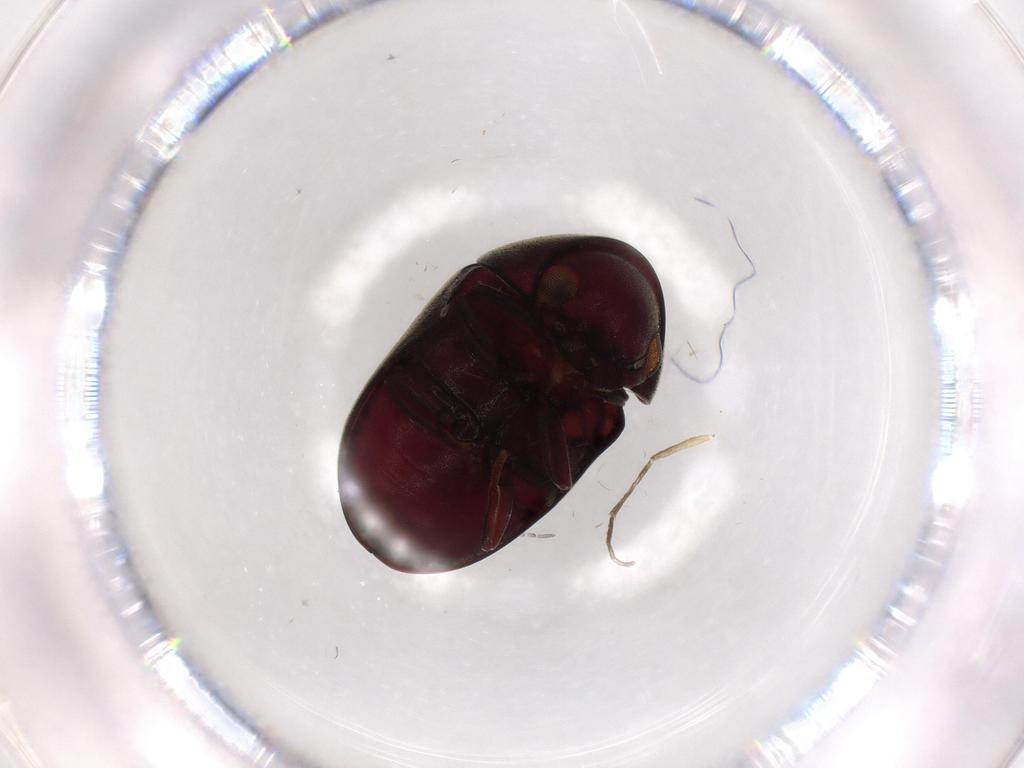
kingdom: Animalia
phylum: Arthropoda
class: Insecta
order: Coleoptera
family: Ptinidae
